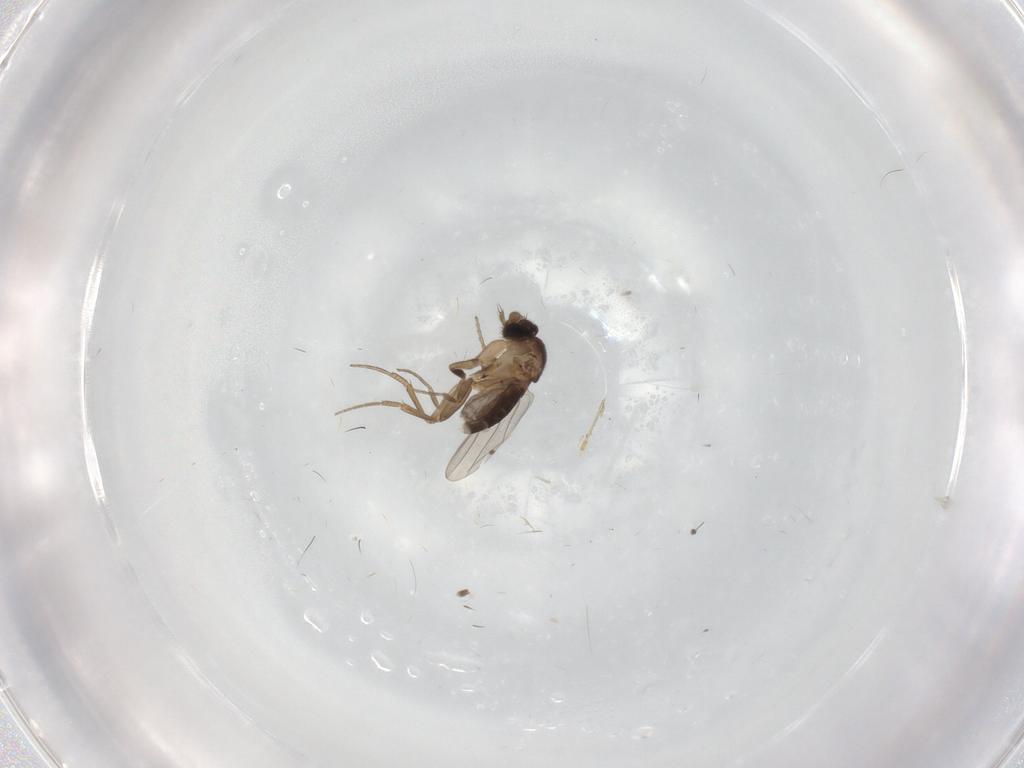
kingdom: Animalia
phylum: Arthropoda
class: Insecta
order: Diptera
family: Phoridae
